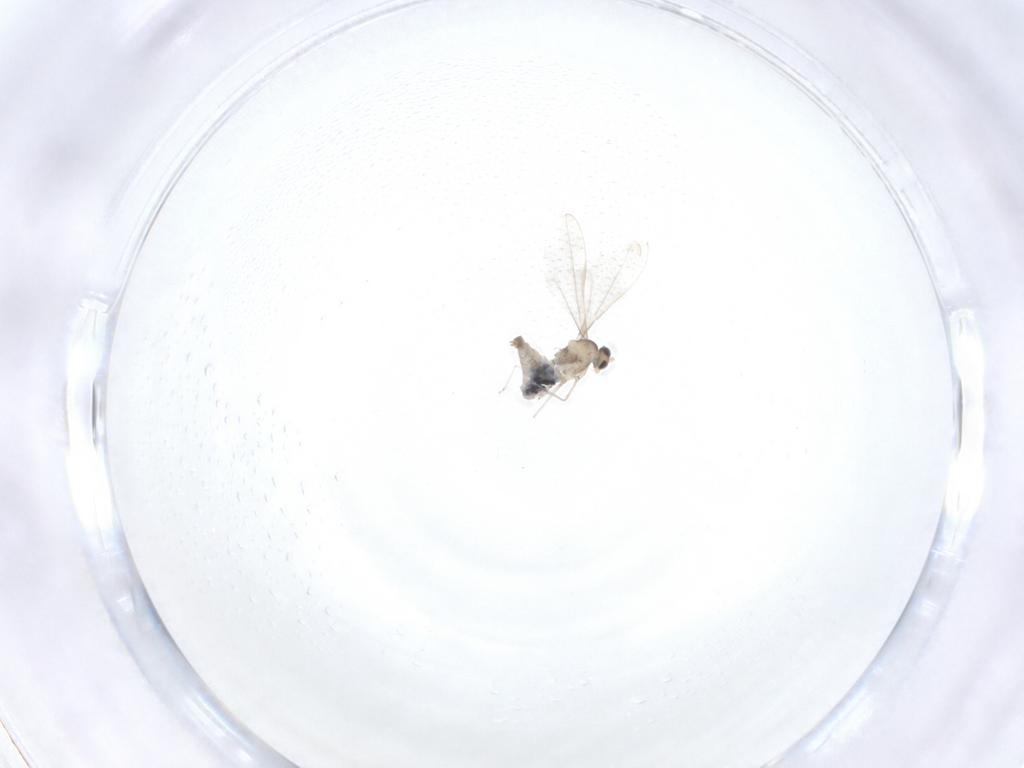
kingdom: Animalia
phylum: Arthropoda
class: Insecta
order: Diptera
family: Cecidomyiidae
